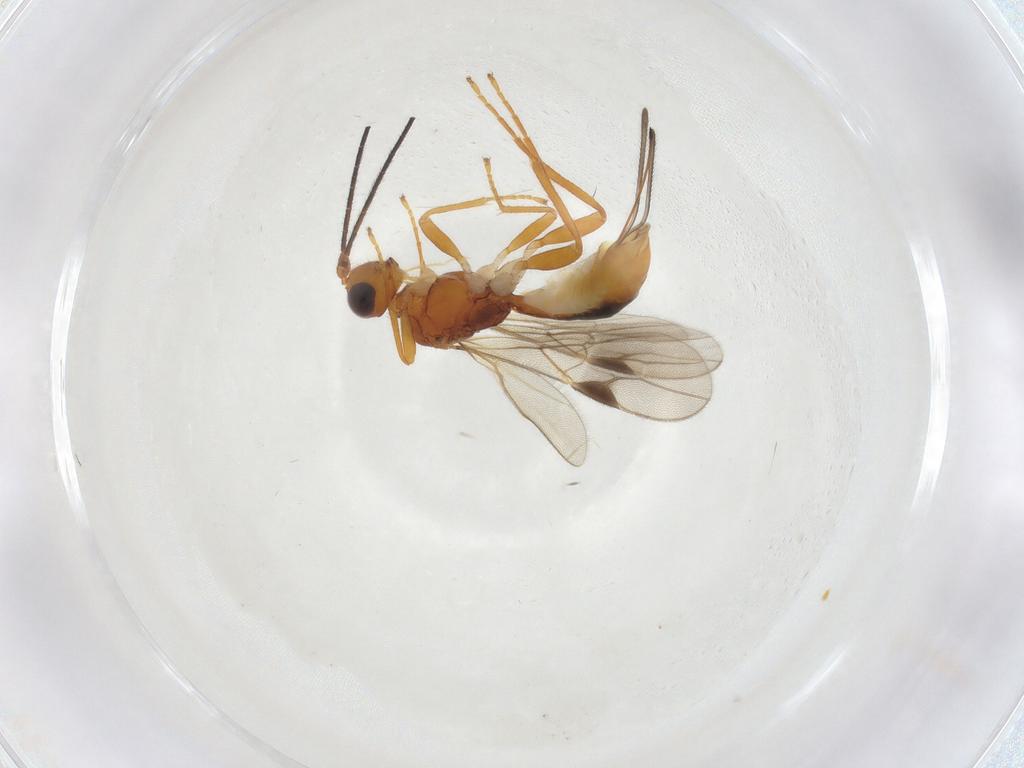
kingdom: Animalia
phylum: Arthropoda
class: Insecta
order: Hymenoptera
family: Braconidae
